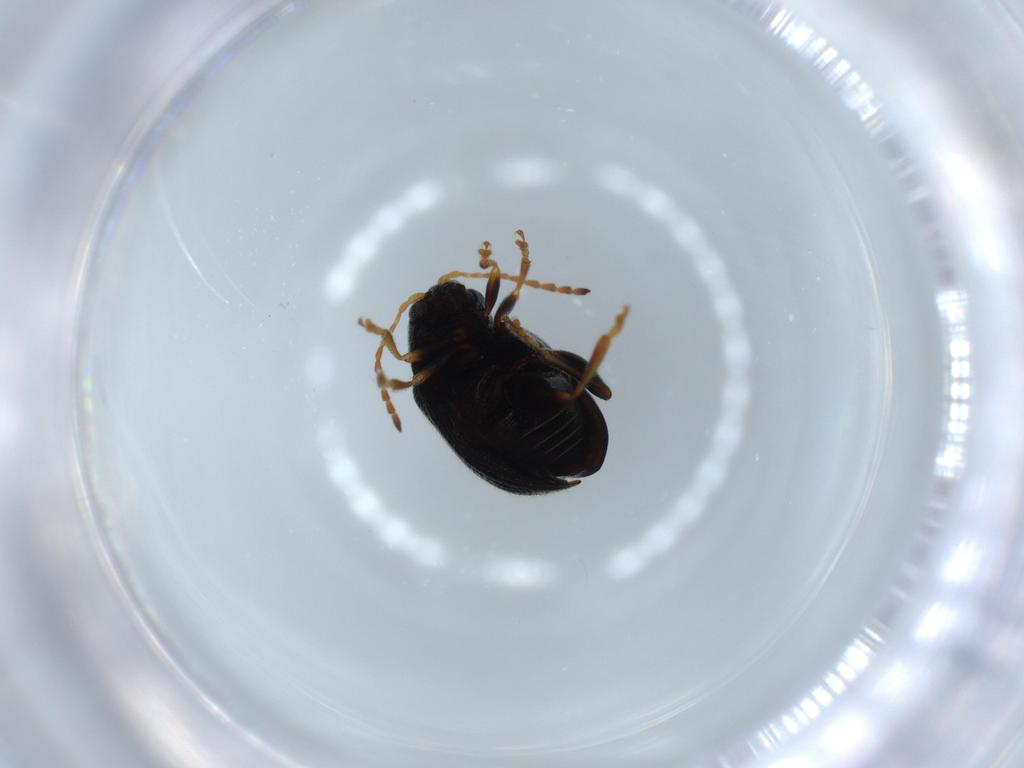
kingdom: Animalia
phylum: Arthropoda
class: Insecta
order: Coleoptera
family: Chrysomelidae
